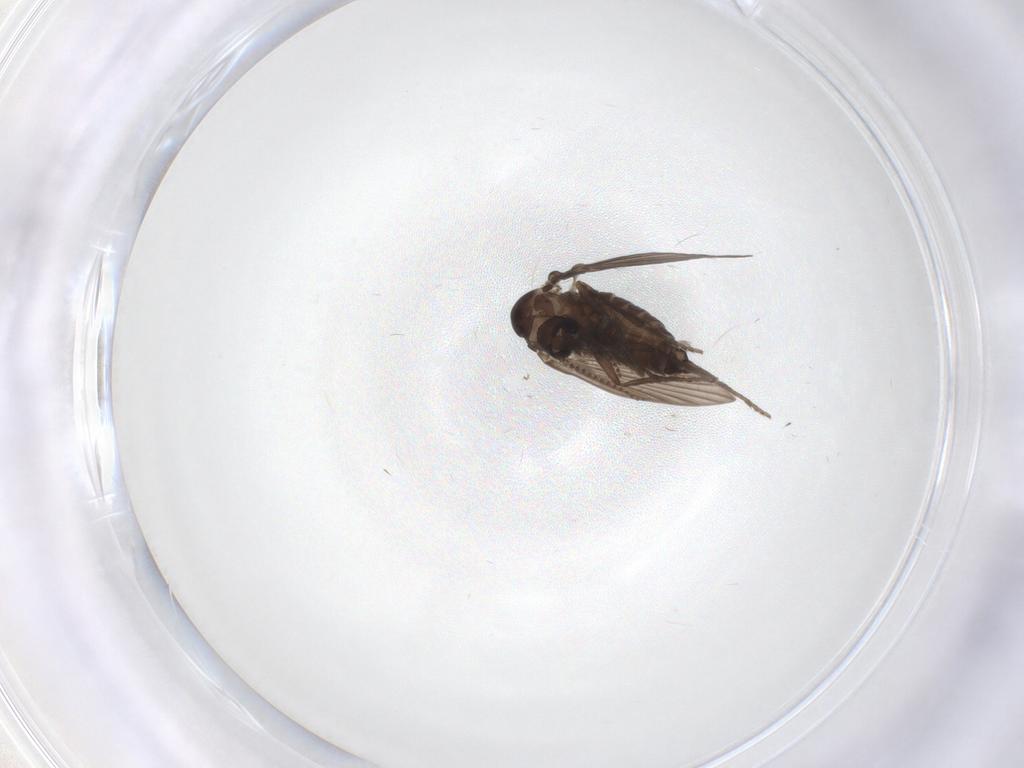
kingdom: Animalia
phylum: Arthropoda
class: Insecta
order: Diptera
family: Psychodidae
